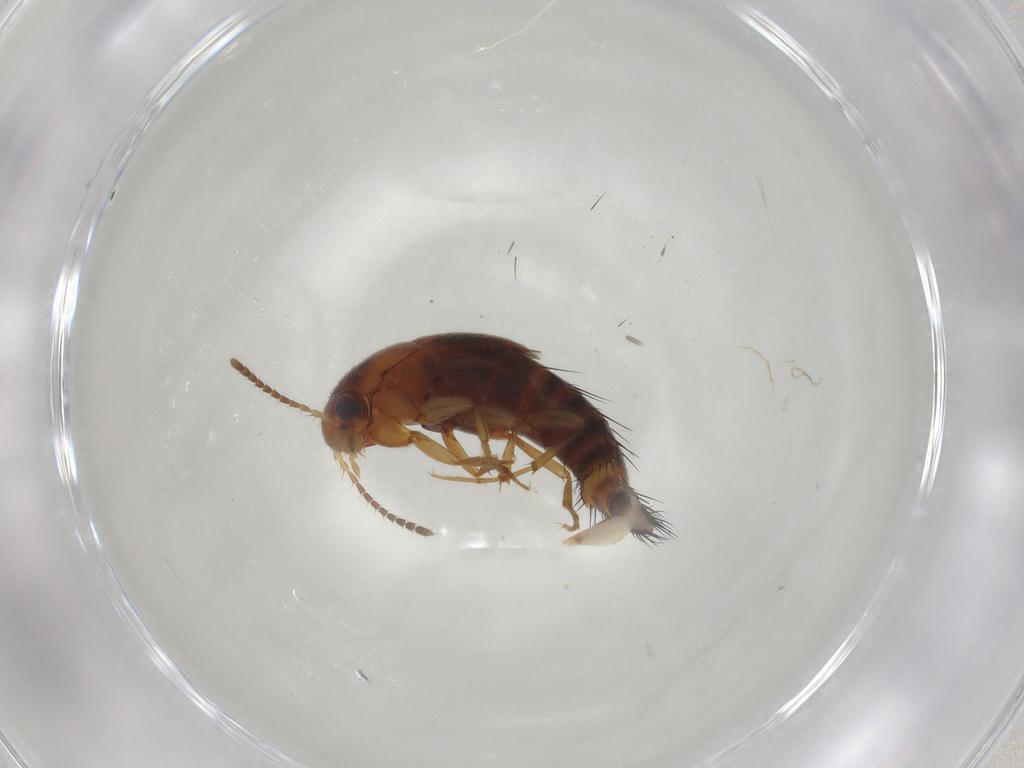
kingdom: Animalia
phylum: Arthropoda
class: Insecta
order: Coleoptera
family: Staphylinidae
